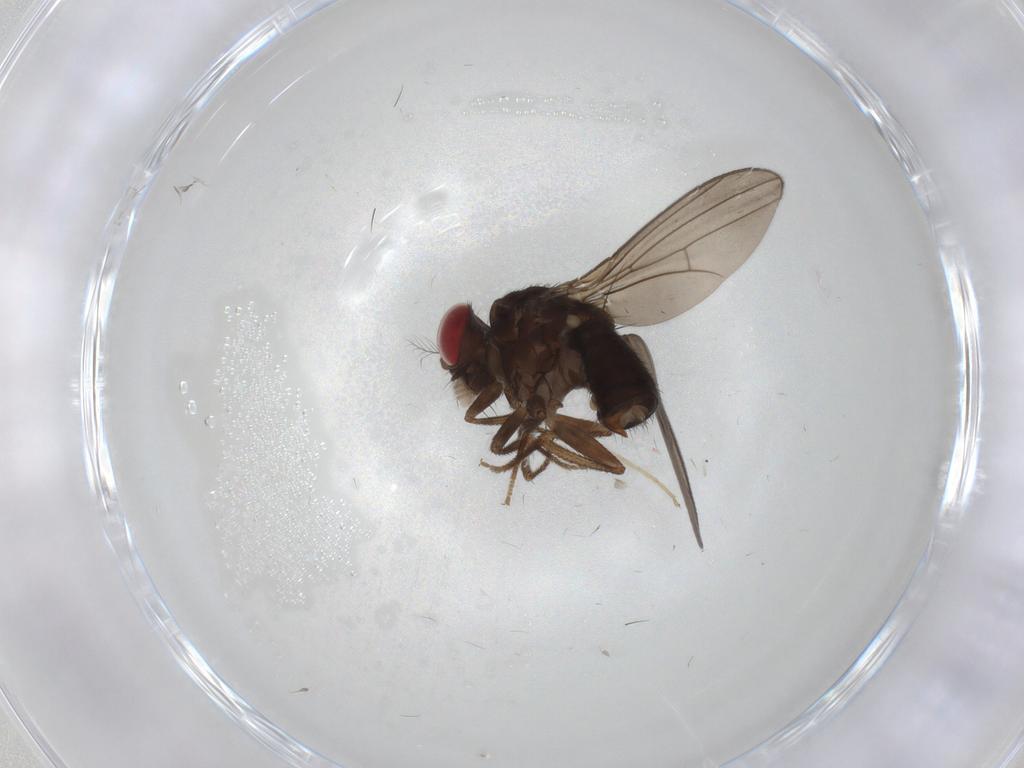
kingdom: Animalia
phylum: Arthropoda
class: Insecta
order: Diptera
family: Drosophilidae
